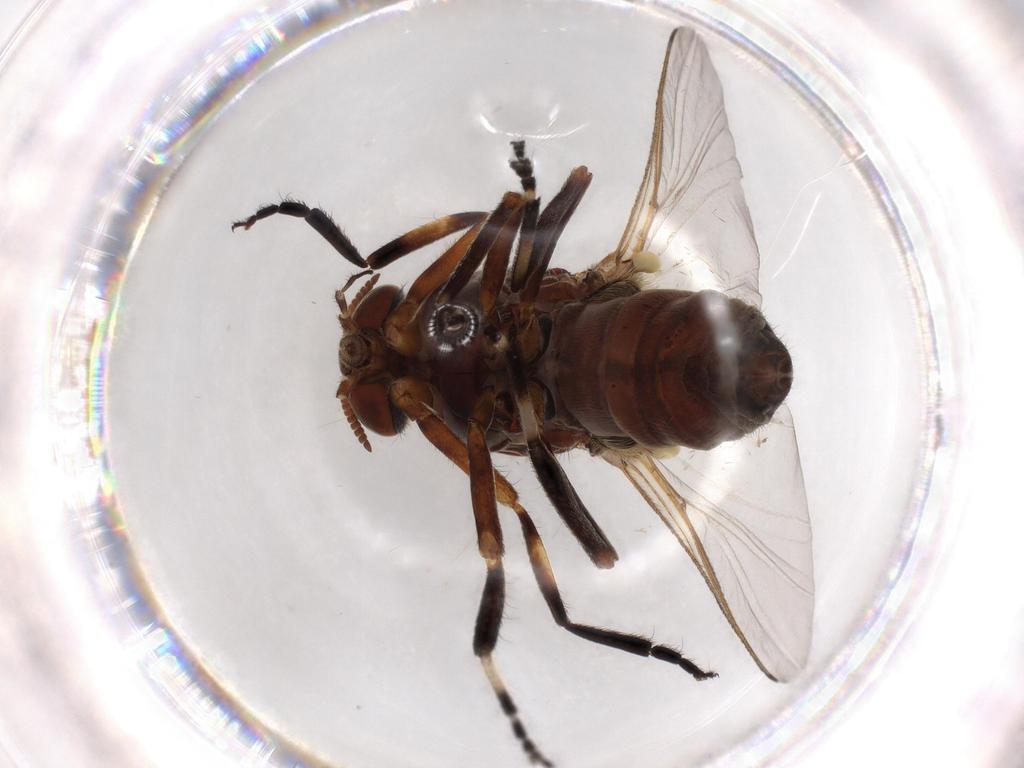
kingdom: Animalia
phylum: Arthropoda
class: Insecta
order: Diptera
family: Hybotidae
